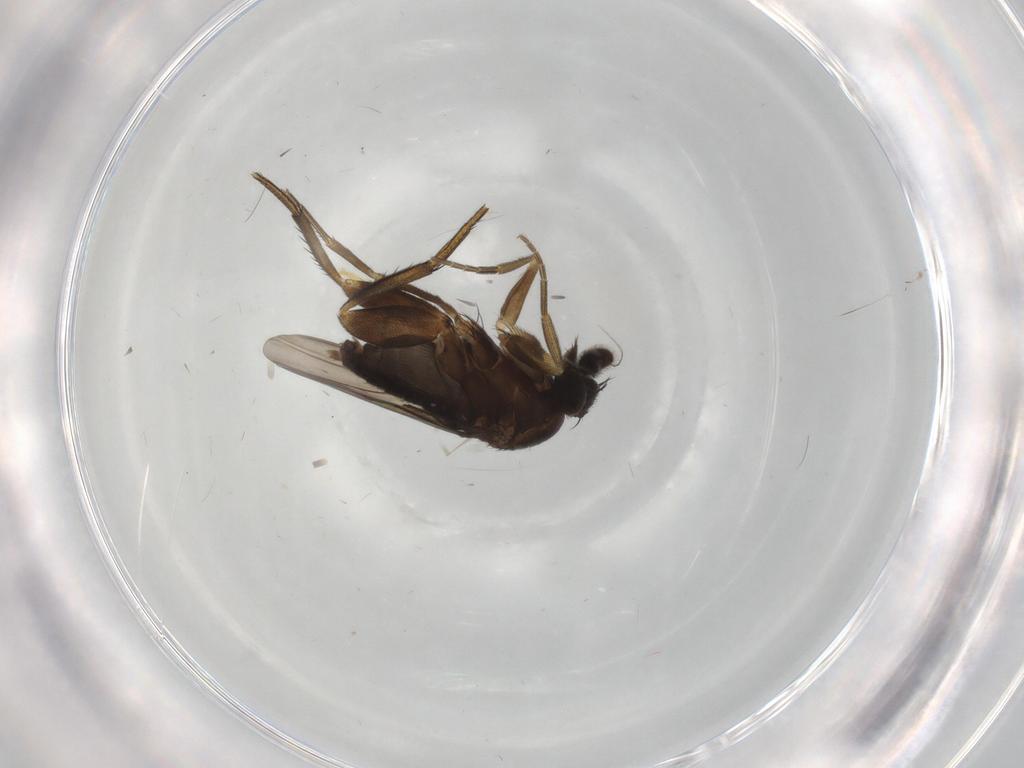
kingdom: Animalia
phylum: Arthropoda
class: Insecta
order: Diptera
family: Cecidomyiidae
